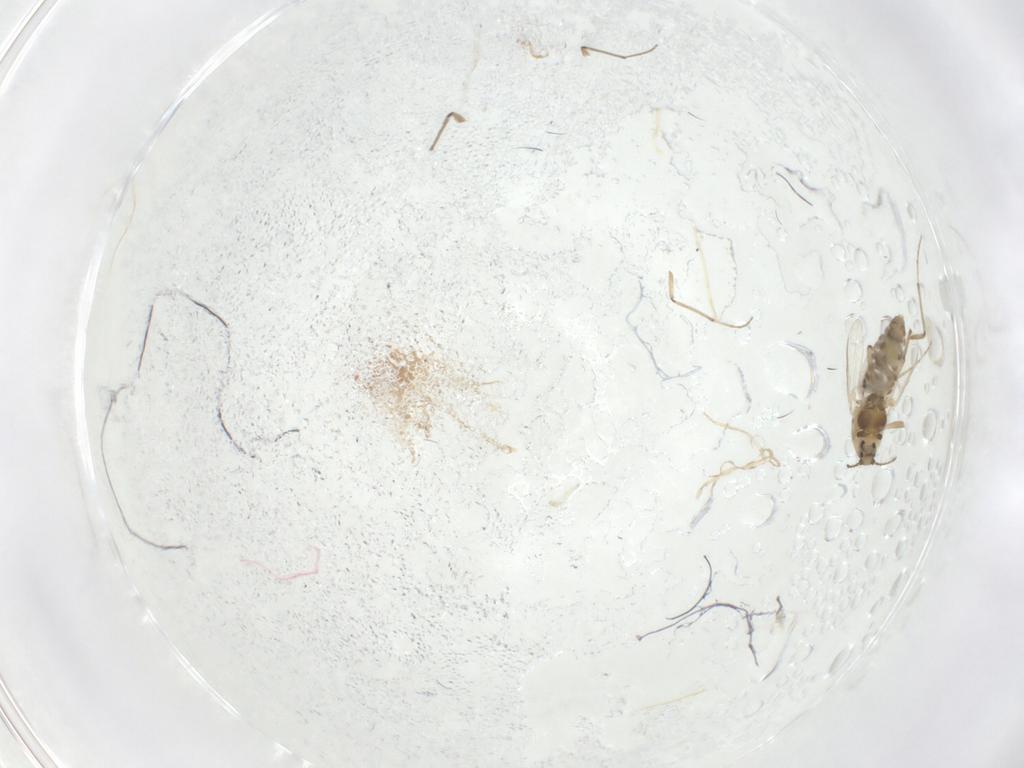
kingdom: Animalia
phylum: Arthropoda
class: Insecta
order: Diptera
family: Chironomidae
